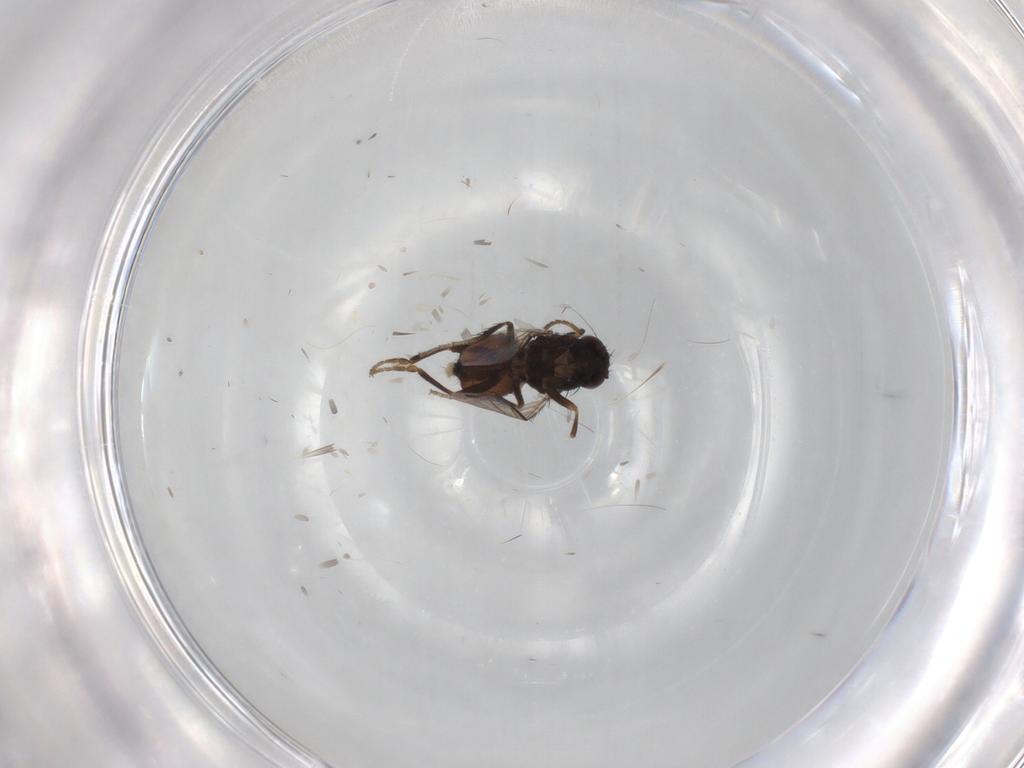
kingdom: Animalia
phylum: Arthropoda
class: Insecta
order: Diptera
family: Sphaeroceridae
